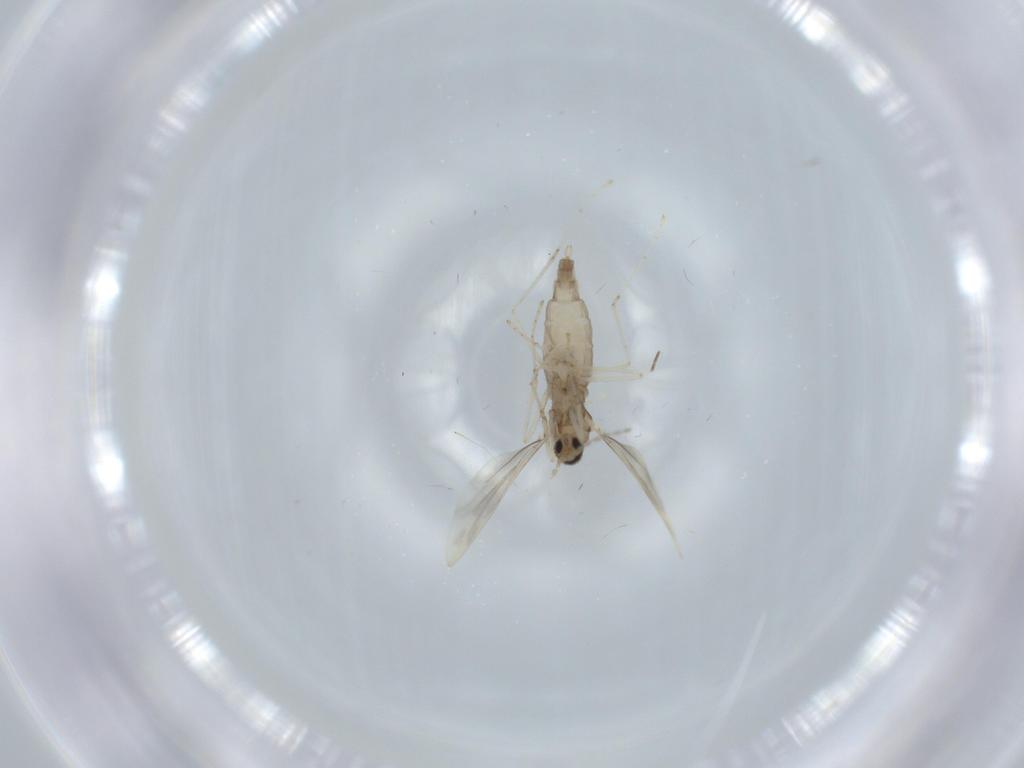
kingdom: Animalia
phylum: Arthropoda
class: Insecta
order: Diptera
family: Cecidomyiidae
